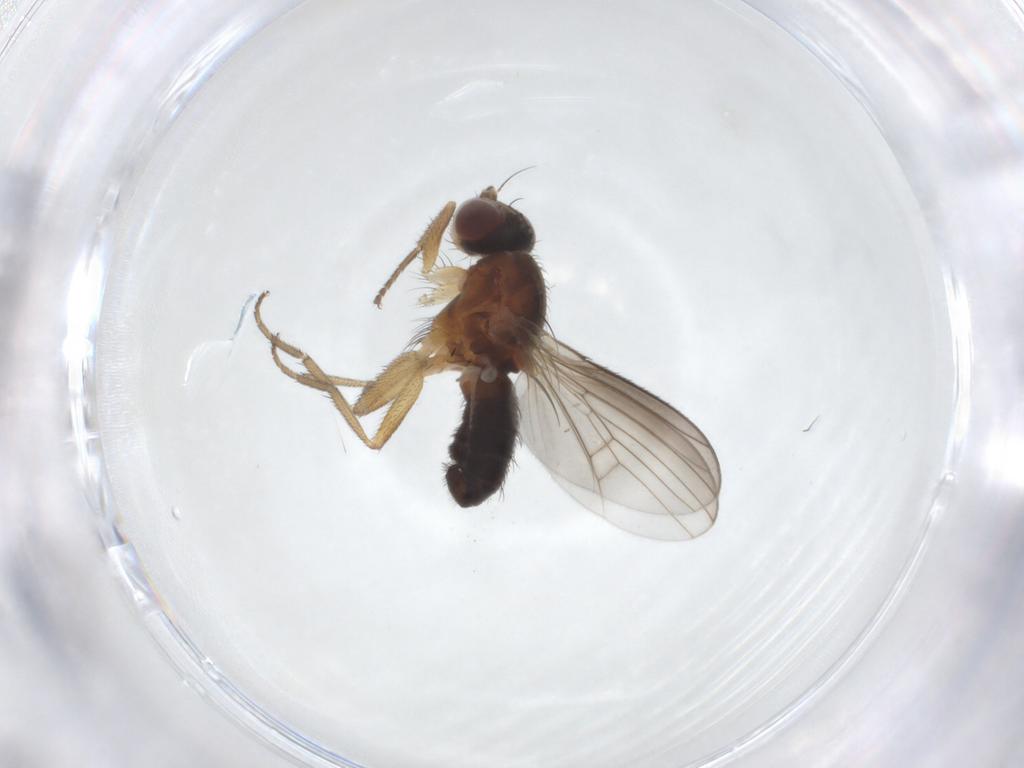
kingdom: Animalia
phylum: Arthropoda
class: Insecta
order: Diptera
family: Heleomyzidae
